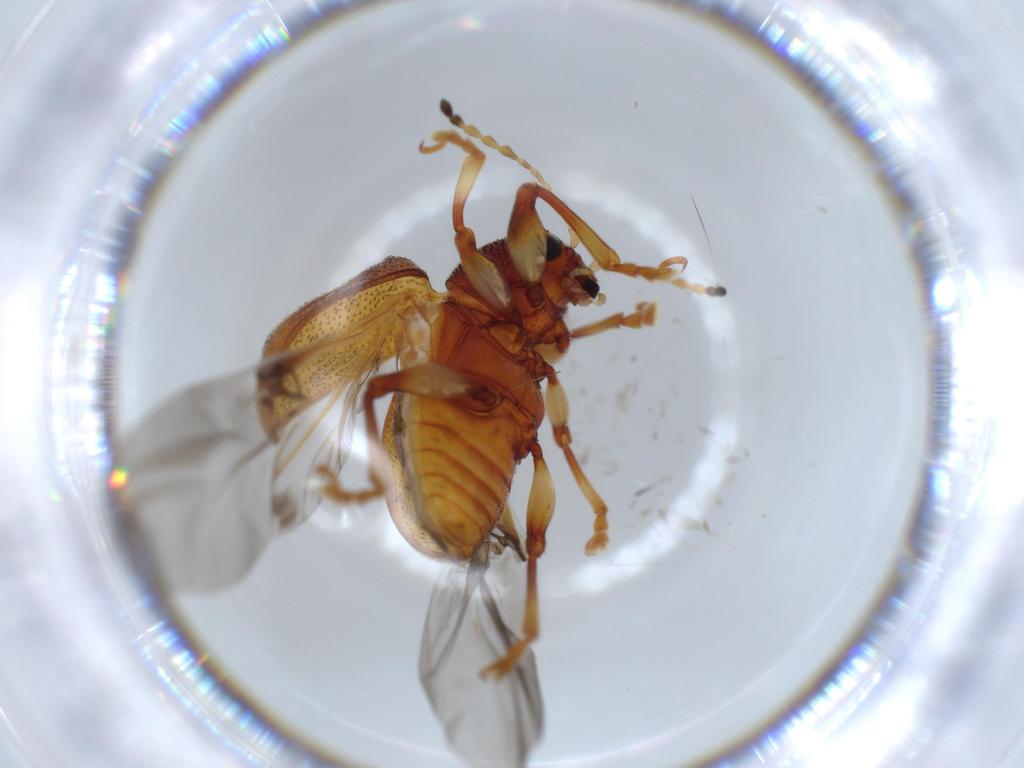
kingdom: Animalia
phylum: Arthropoda
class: Insecta
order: Coleoptera
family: Chrysomelidae
